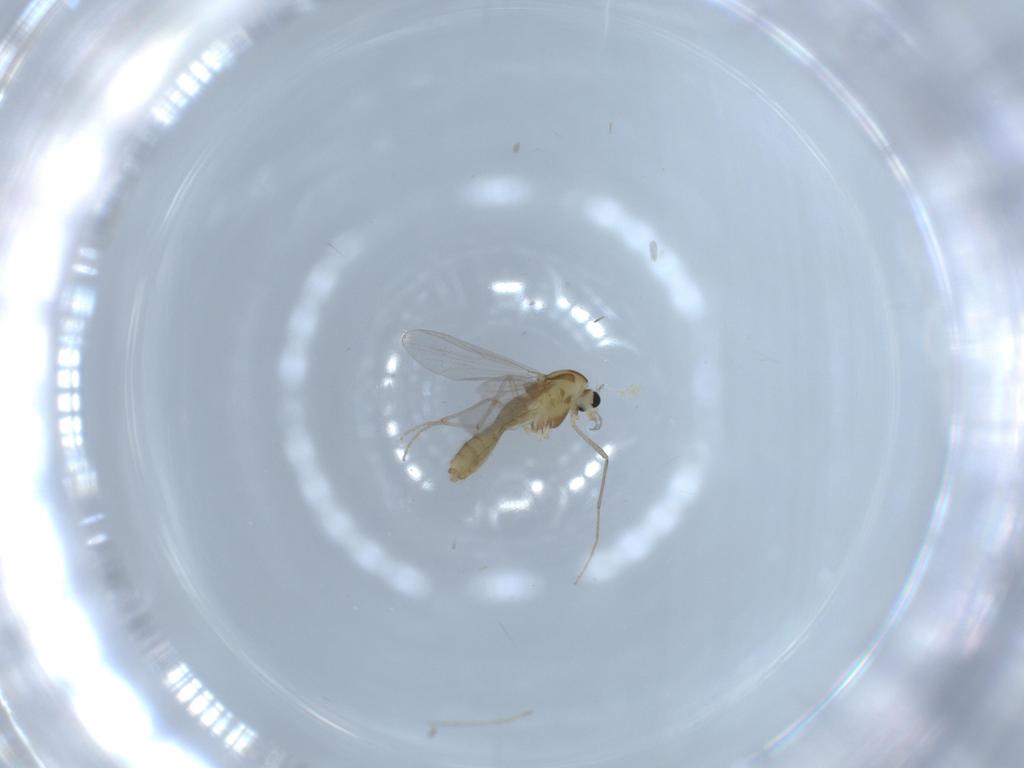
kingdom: Animalia
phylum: Arthropoda
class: Insecta
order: Diptera
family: Chironomidae
